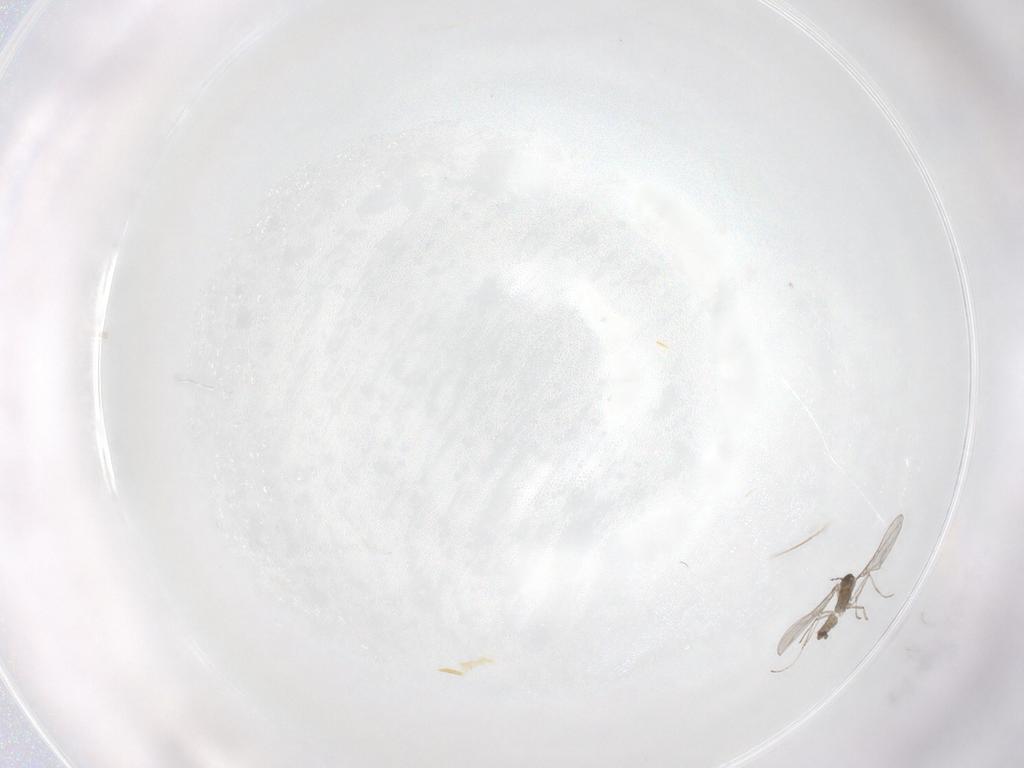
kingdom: Animalia
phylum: Arthropoda
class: Insecta
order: Diptera
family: Cecidomyiidae
